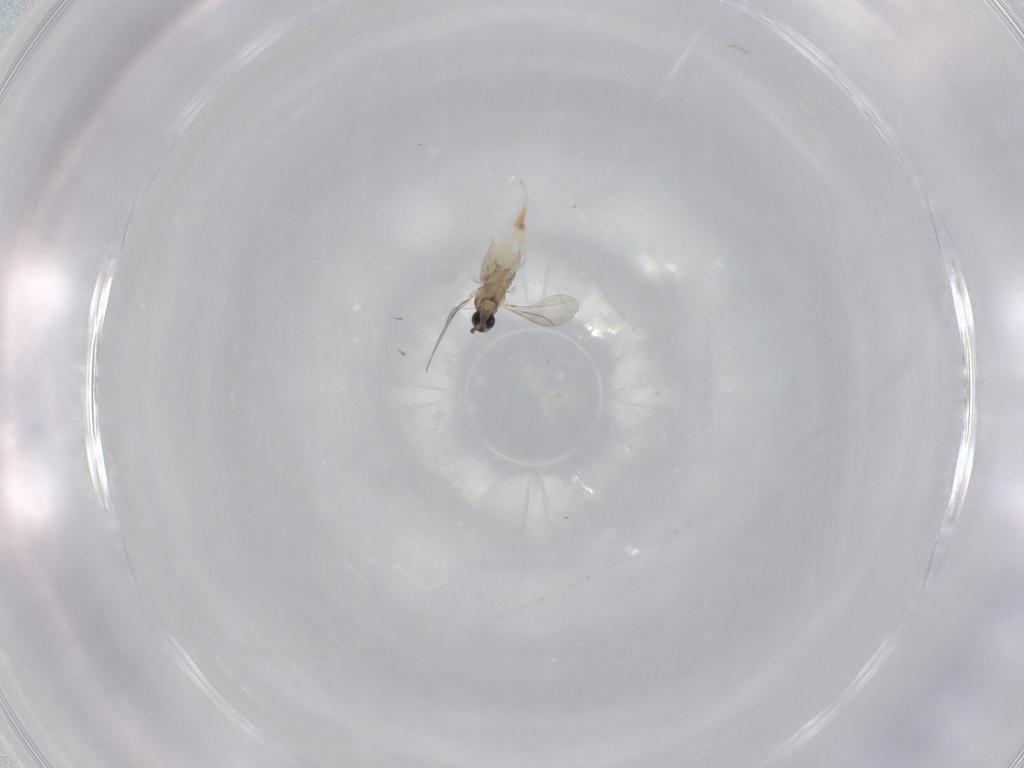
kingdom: Animalia
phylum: Arthropoda
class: Insecta
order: Diptera
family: Cecidomyiidae
